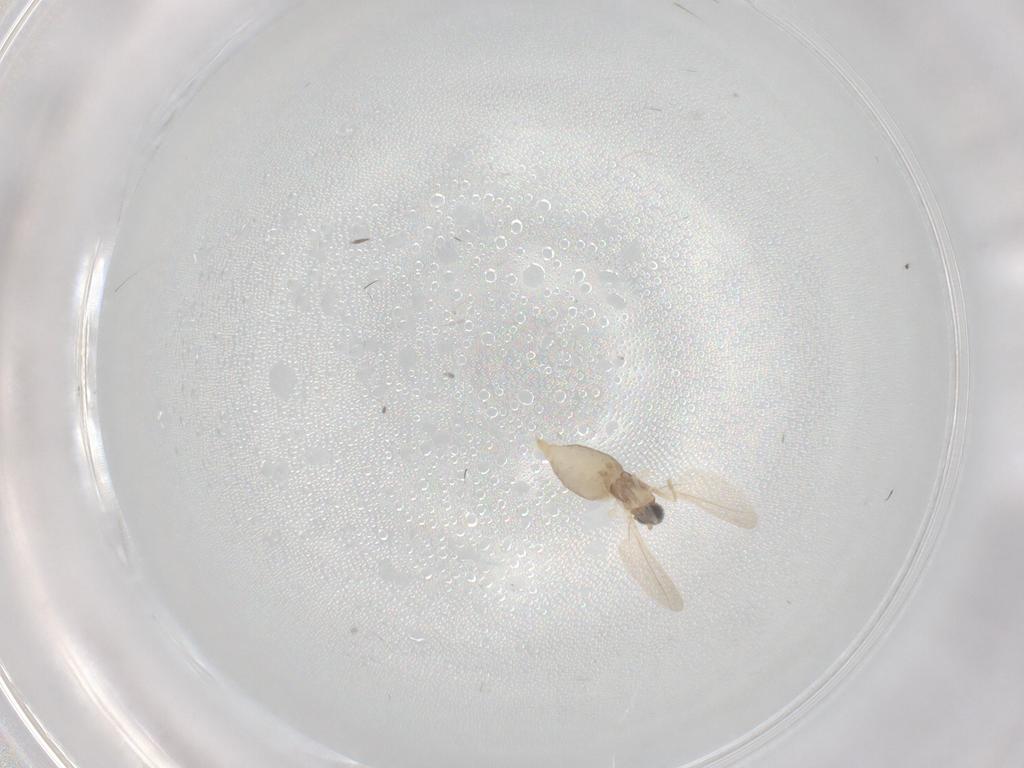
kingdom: Animalia
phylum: Arthropoda
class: Insecta
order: Diptera
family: Cecidomyiidae
